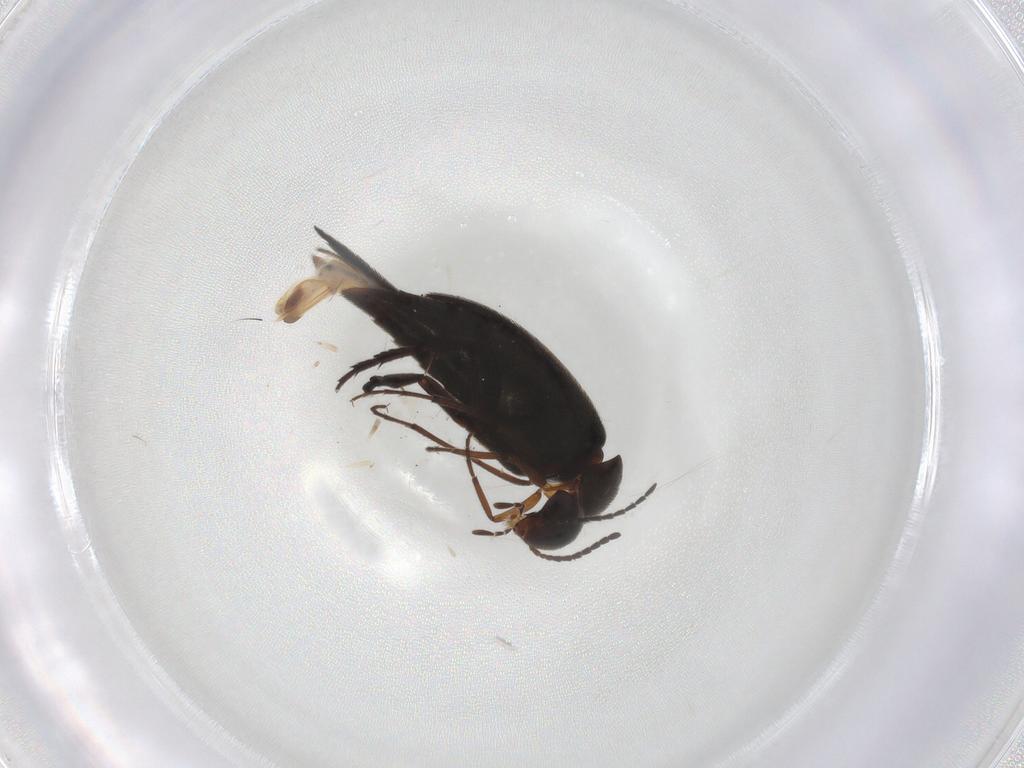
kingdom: Animalia
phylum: Arthropoda
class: Insecta
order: Coleoptera
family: Mordellidae
